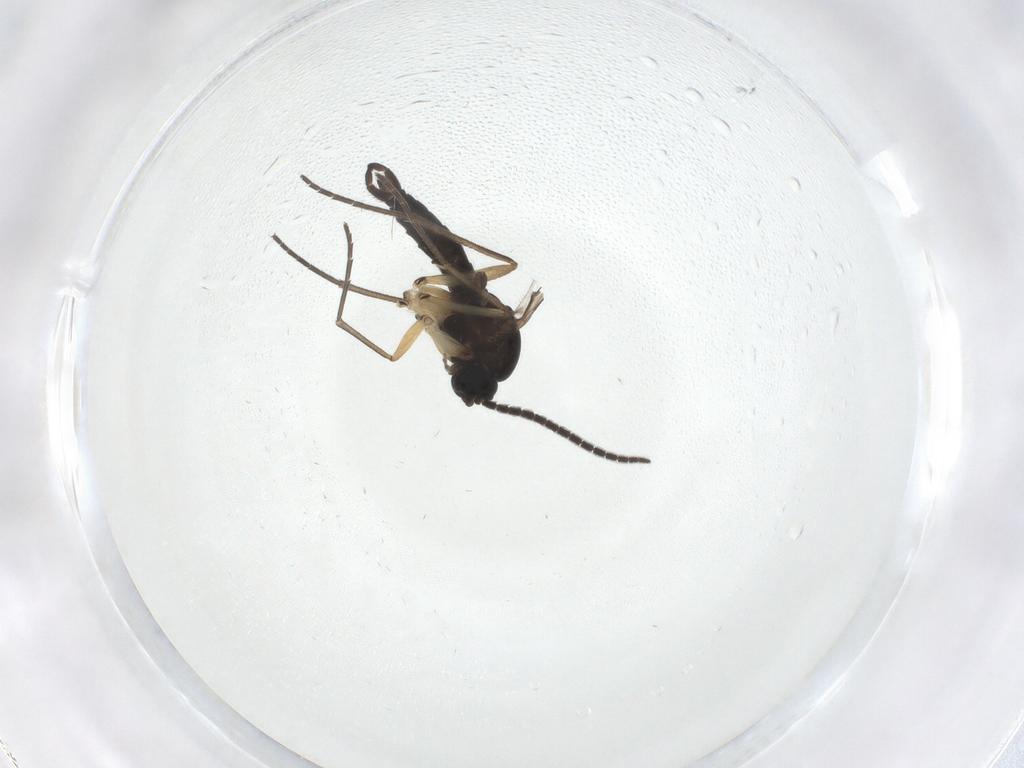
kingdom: Animalia
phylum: Arthropoda
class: Insecta
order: Diptera
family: Sciaridae
